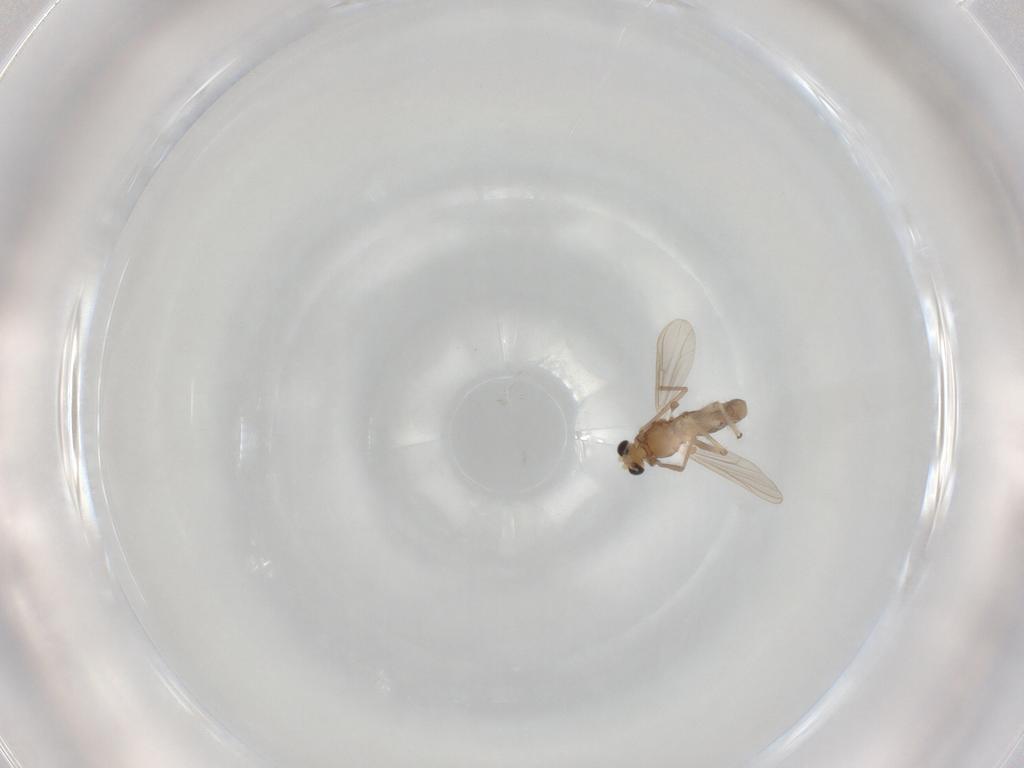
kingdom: Animalia
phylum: Arthropoda
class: Insecta
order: Diptera
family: Chironomidae
